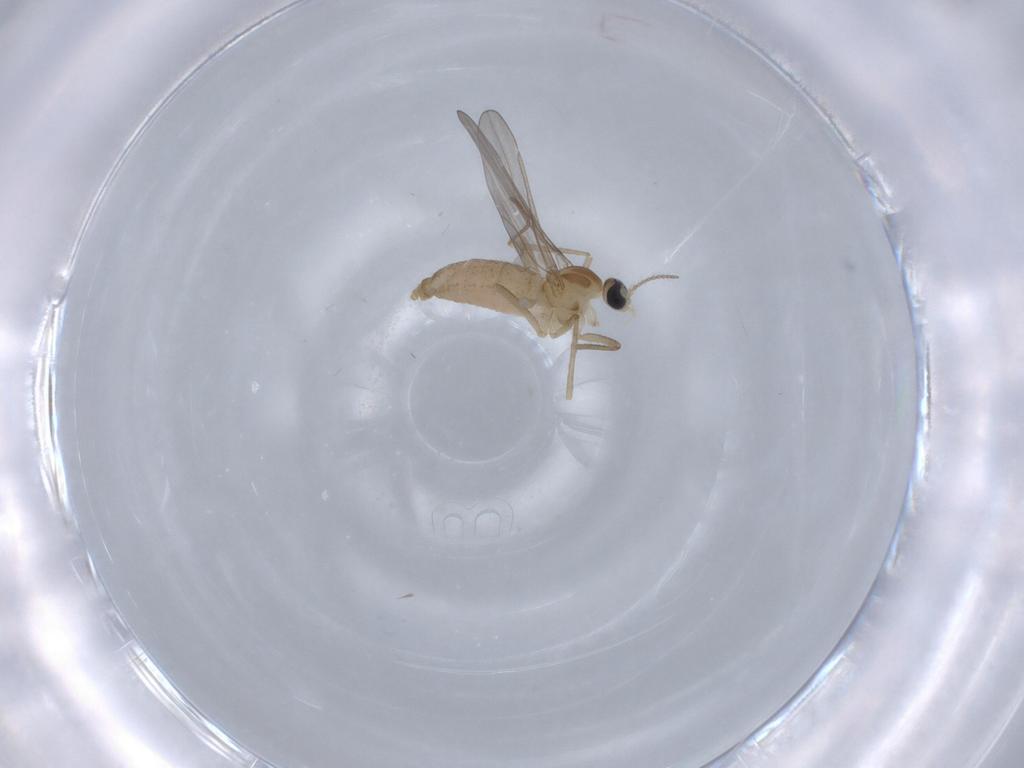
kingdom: Animalia
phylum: Arthropoda
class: Insecta
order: Diptera
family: Cecidomyiidae
